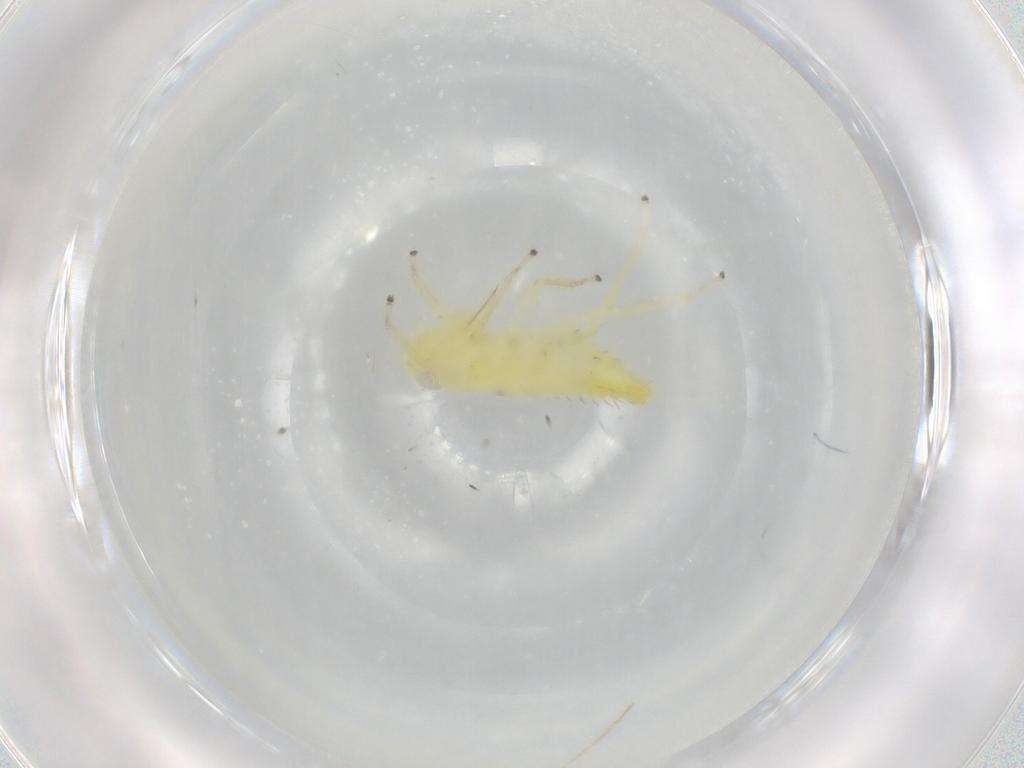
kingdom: Animalia
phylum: Arthropoda
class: Insecta
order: Hemiptera
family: Cicadellidae
